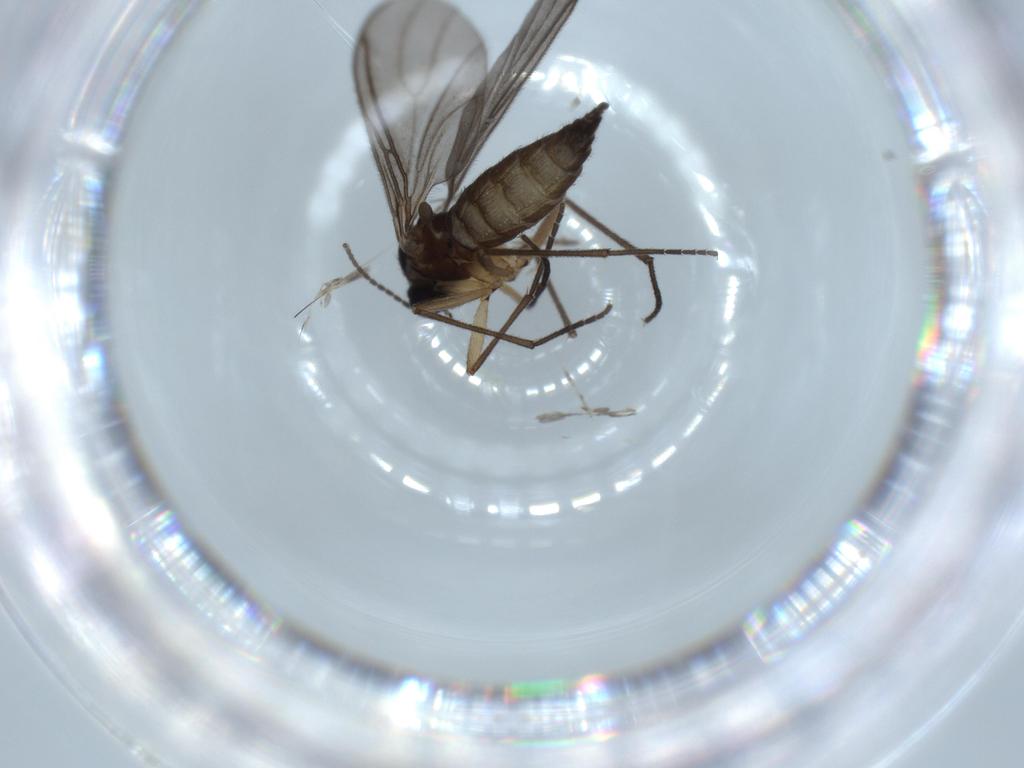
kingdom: Animalia
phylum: Arthropoda
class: Insecta
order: Diptera
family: Sciaridae
